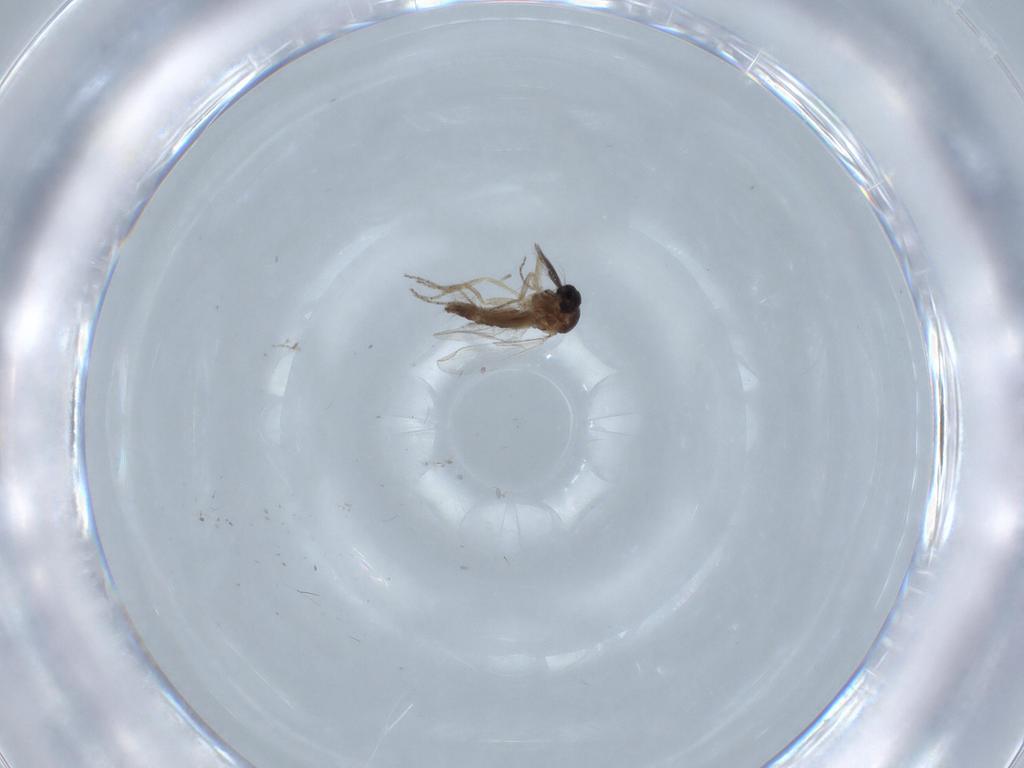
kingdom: Animalia
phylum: Arthropoda
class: Insecta
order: Diptera
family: Ceratopogonidae
